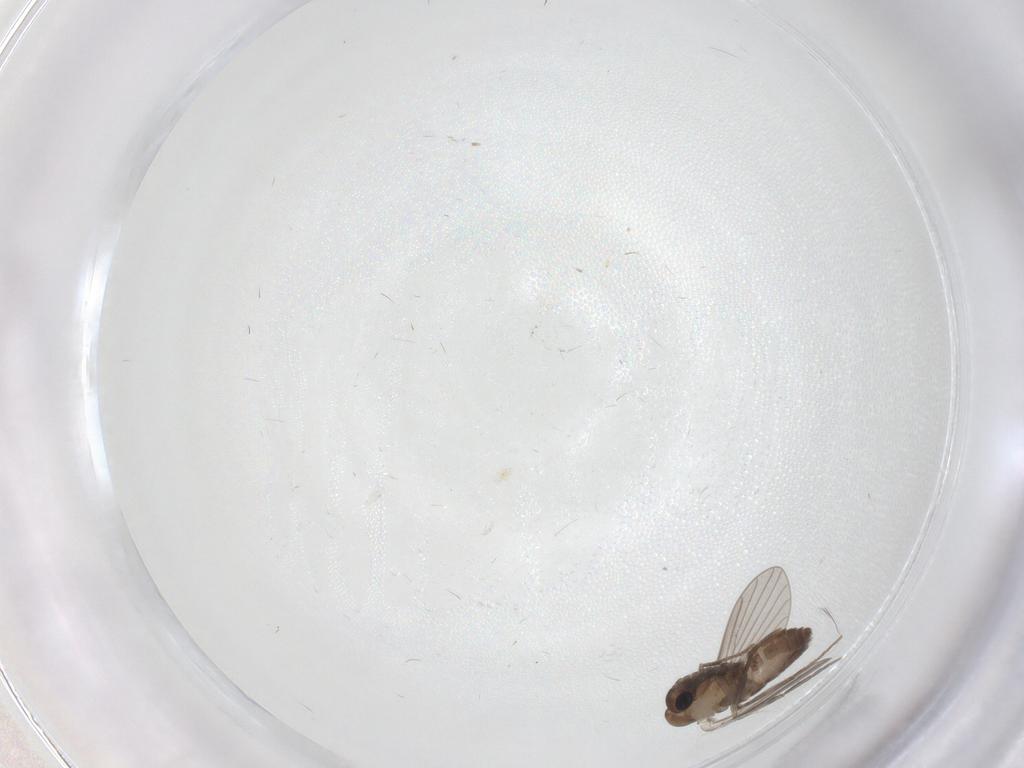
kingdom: Animalia
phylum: Arthropoda
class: Insecta
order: Diptera
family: Psychodidae
